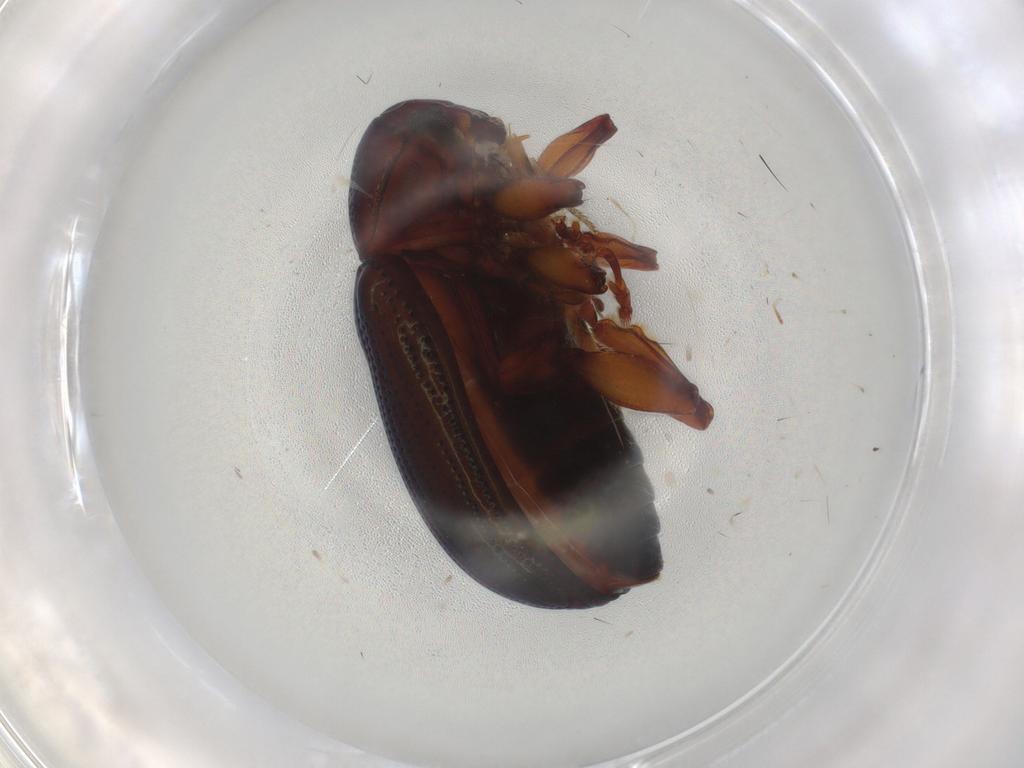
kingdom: Animalia
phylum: Arthropoda
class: Insecta
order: Coleoptera
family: Chrysomelidae
